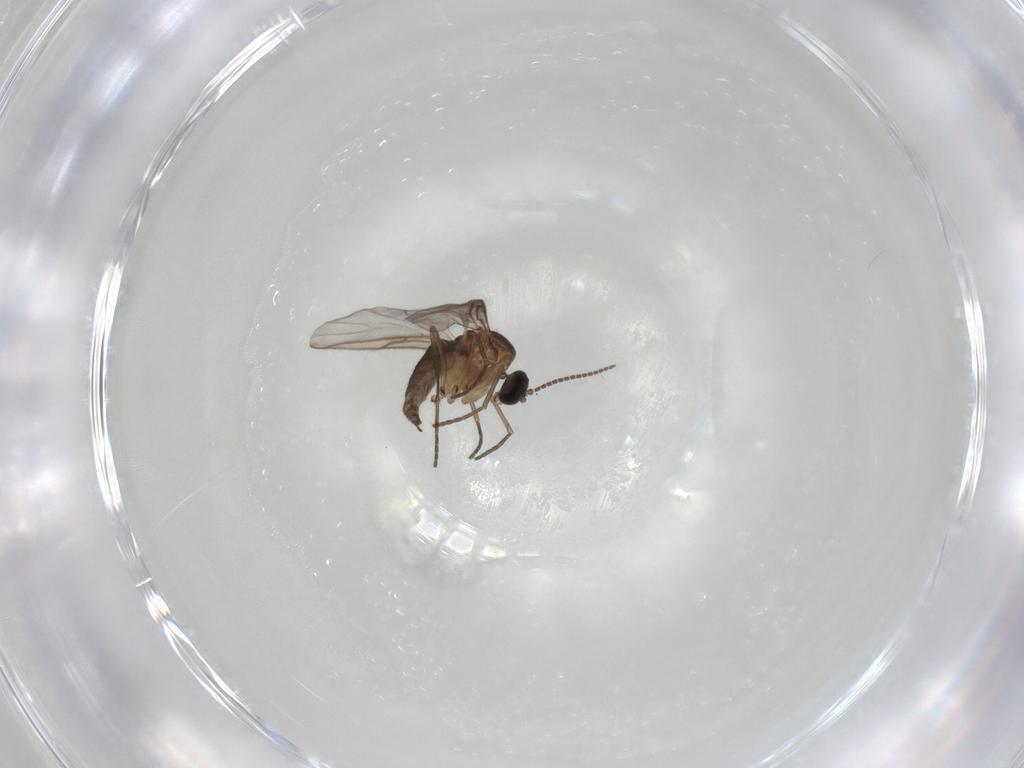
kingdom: Animalia
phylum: Arthropoda
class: Insecta
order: Diptera
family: Sciaridae
